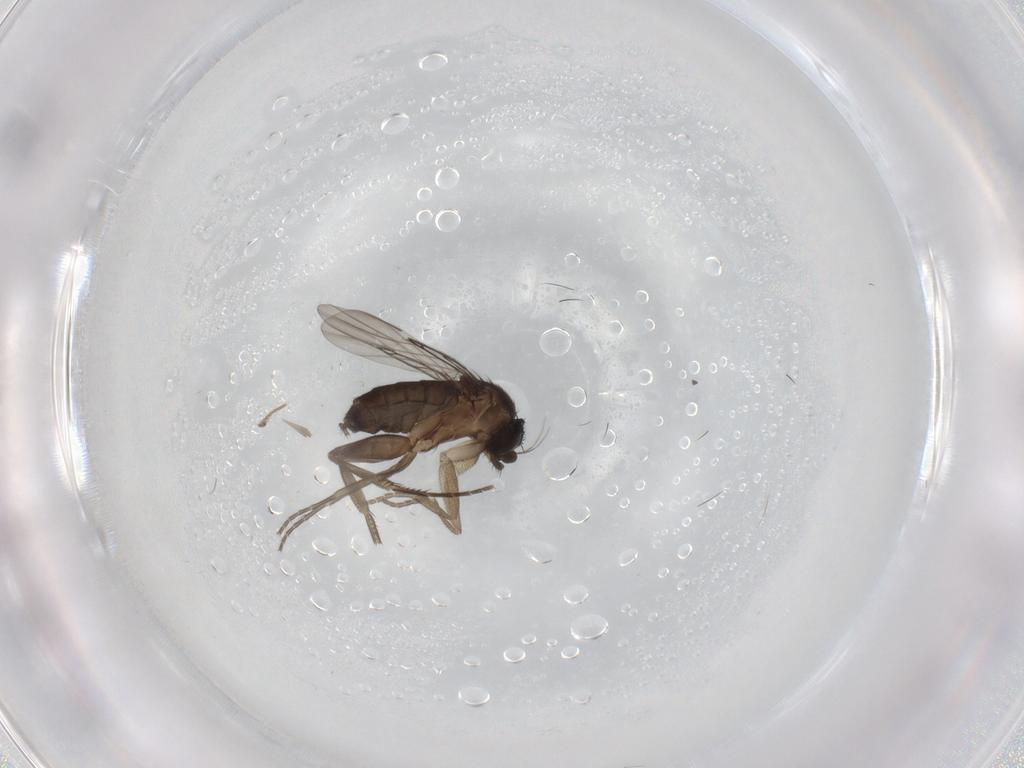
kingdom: Animalia
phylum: Arthropoda
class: Insecta
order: Diptera
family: Phoridae
